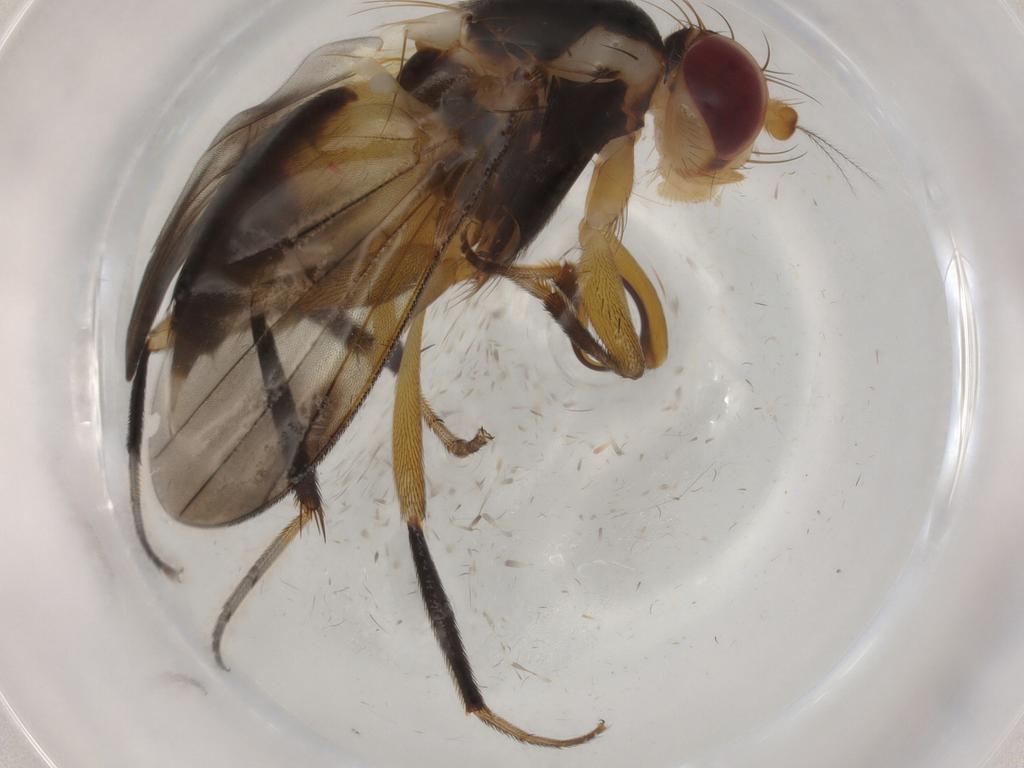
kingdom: Animalia
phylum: Arthropoda
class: Insecta
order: Diptera
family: Clusiidae
